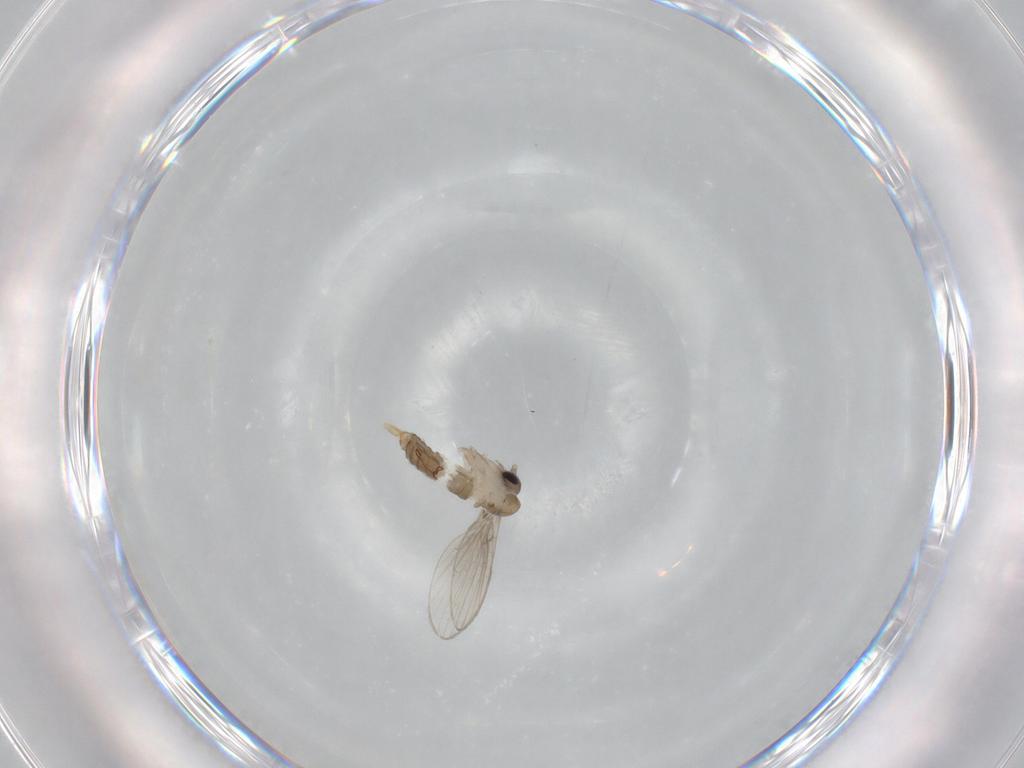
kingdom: Animalia
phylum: Arthropoda
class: Insecta
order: Diptera
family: Psychodidae
